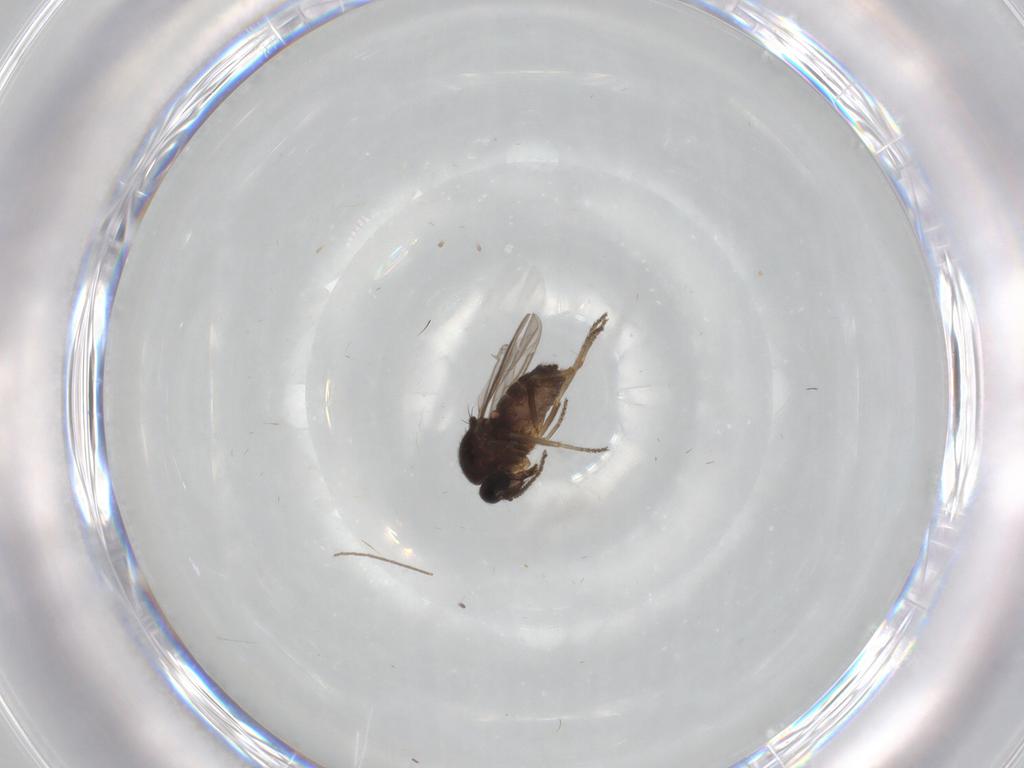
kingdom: Animalia
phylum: Arthropoda
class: Insecta
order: Diptera
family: Ceratopogonidae
